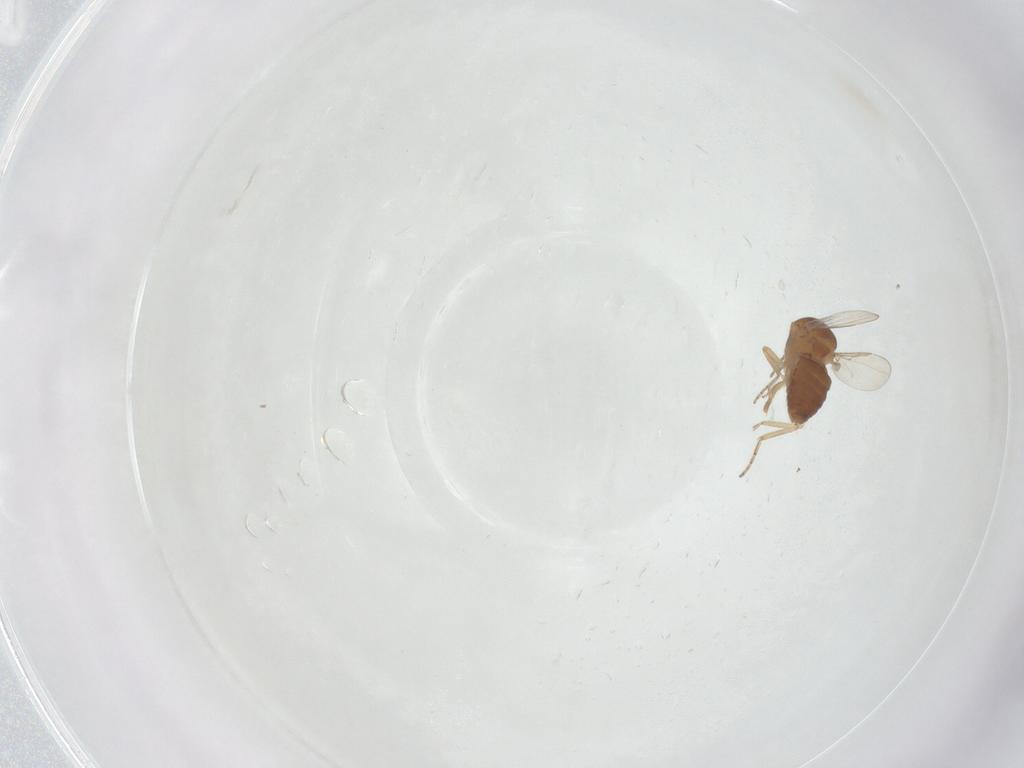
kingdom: Animalia
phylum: Arthropoda
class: Insecta
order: Diptera
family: Ceratopogonidae
